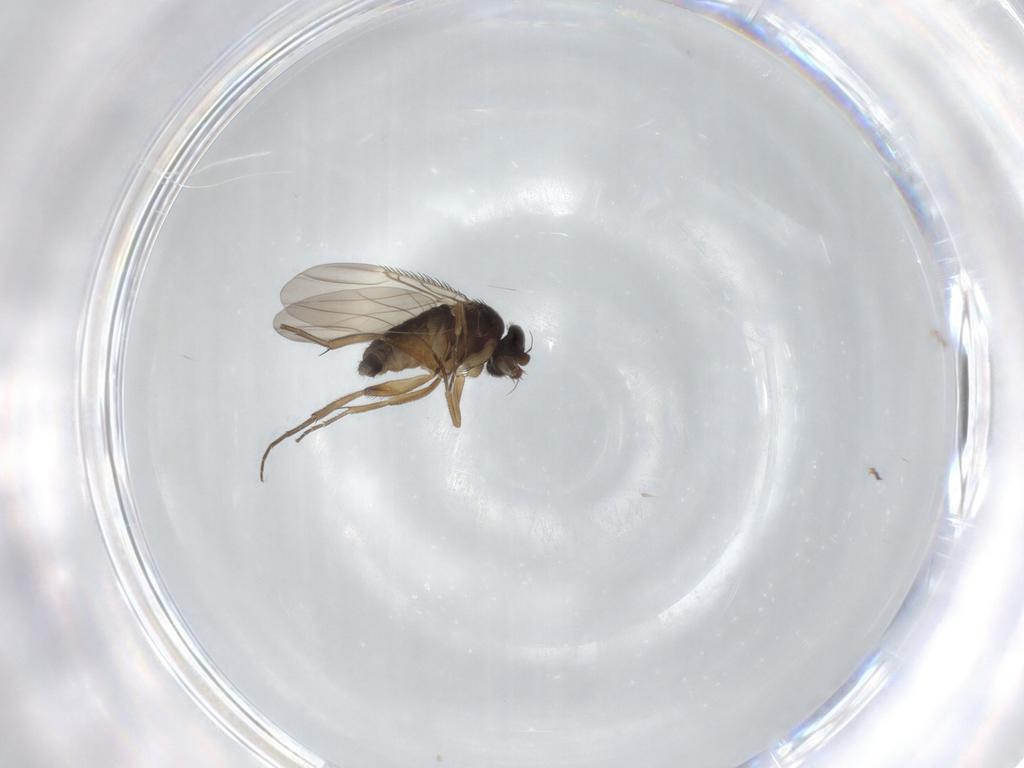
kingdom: Animalia
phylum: Arthropoda
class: Insecta
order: Diptera
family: Phoridae
